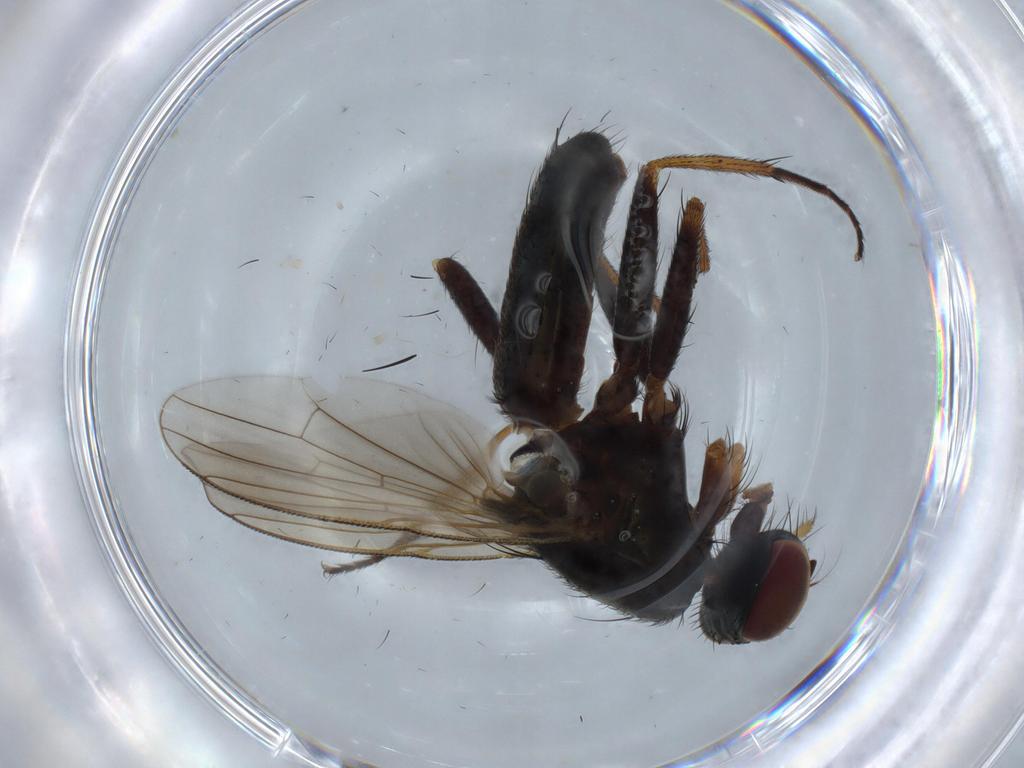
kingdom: Animalia
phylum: Arthropoda
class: Insecta
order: Diptera
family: Muscidae
